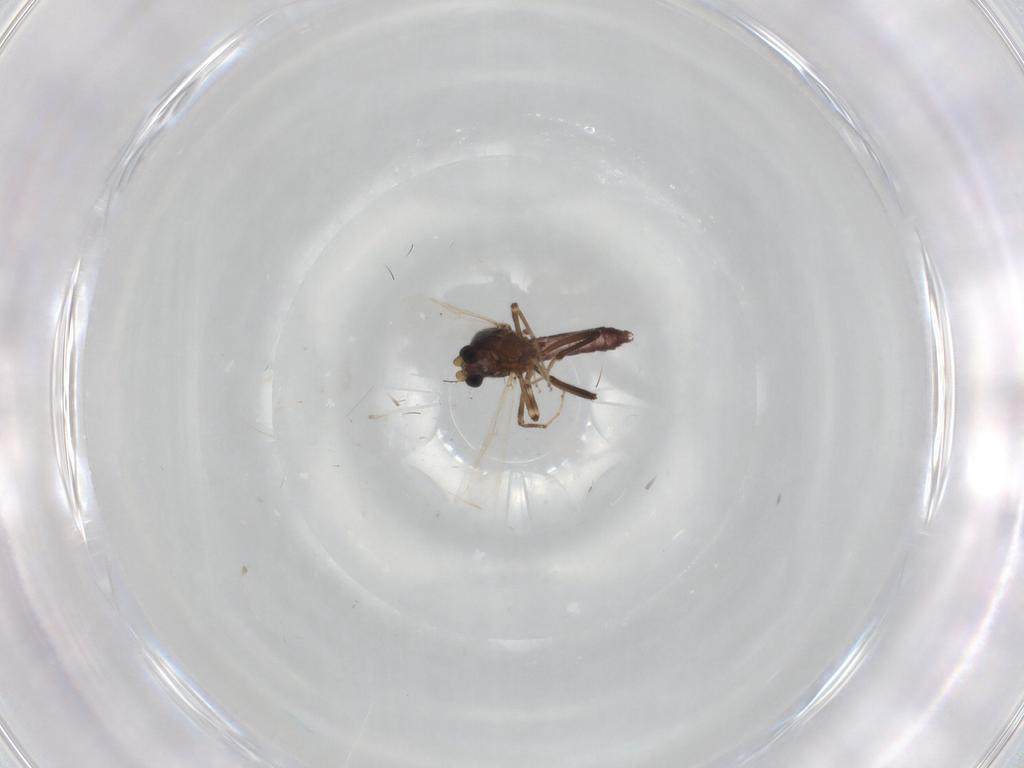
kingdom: Animalia
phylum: Arthropoda
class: Insecta
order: Diptera
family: Ceratopogonidae
